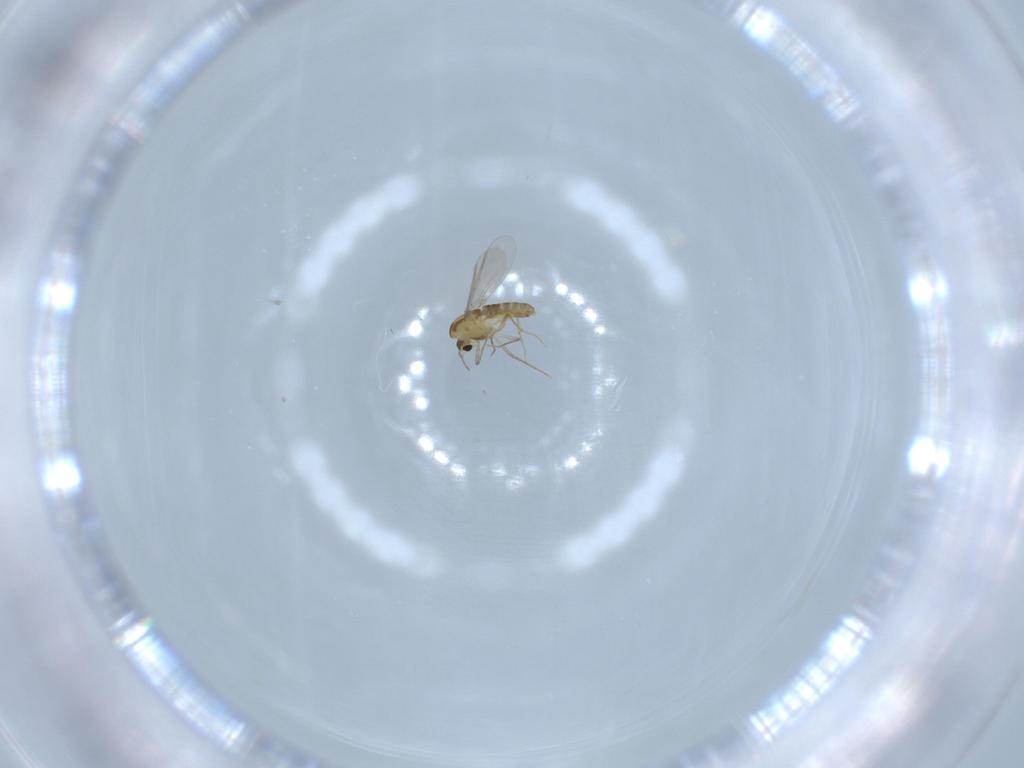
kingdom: Animalia
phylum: Arthropoda
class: Insecta
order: Diptera
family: Chironomidae
